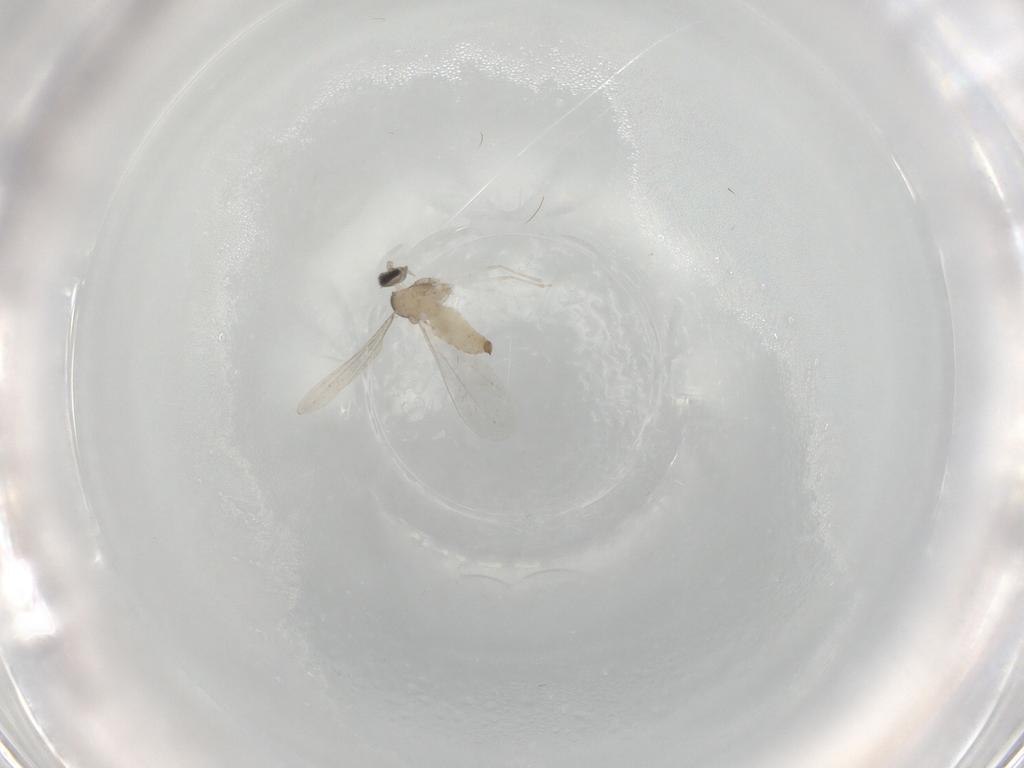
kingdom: Animalia
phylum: Arthropoda
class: Insecta
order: Diptera
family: Cecidomyiidae
